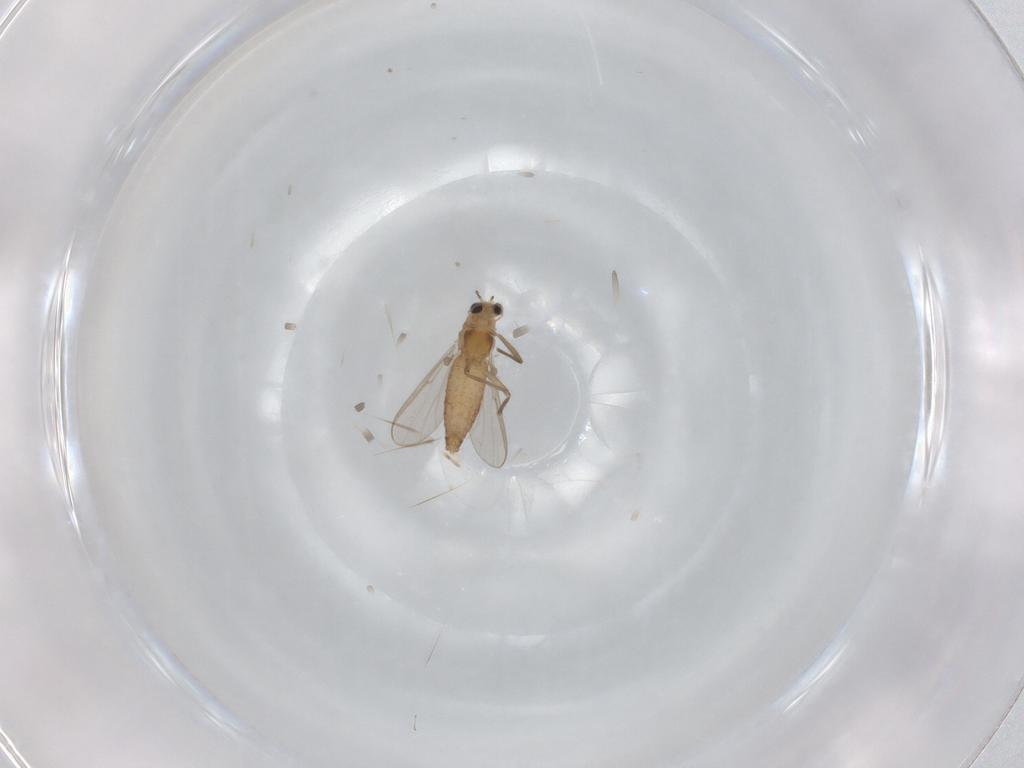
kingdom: Animalia
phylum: Arthropoda
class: Insecta
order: Diptera
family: Chironomidae
